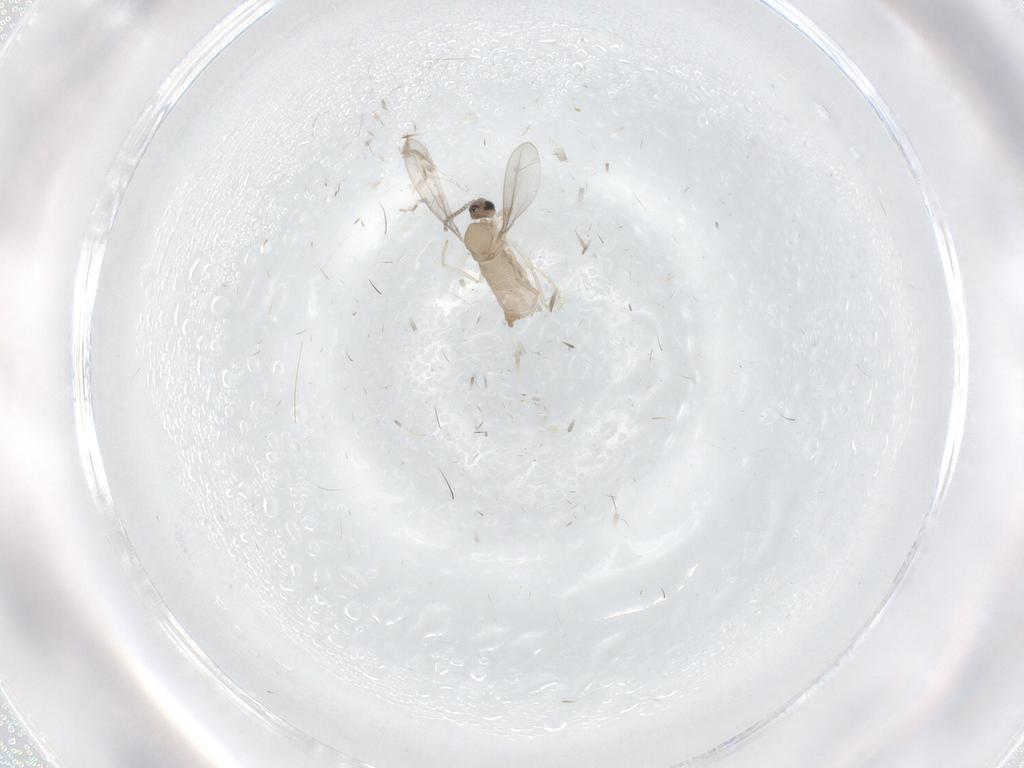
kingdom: Animalia
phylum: Arthropoda
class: Insecta
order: Diptera
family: Cecidomyiidae
